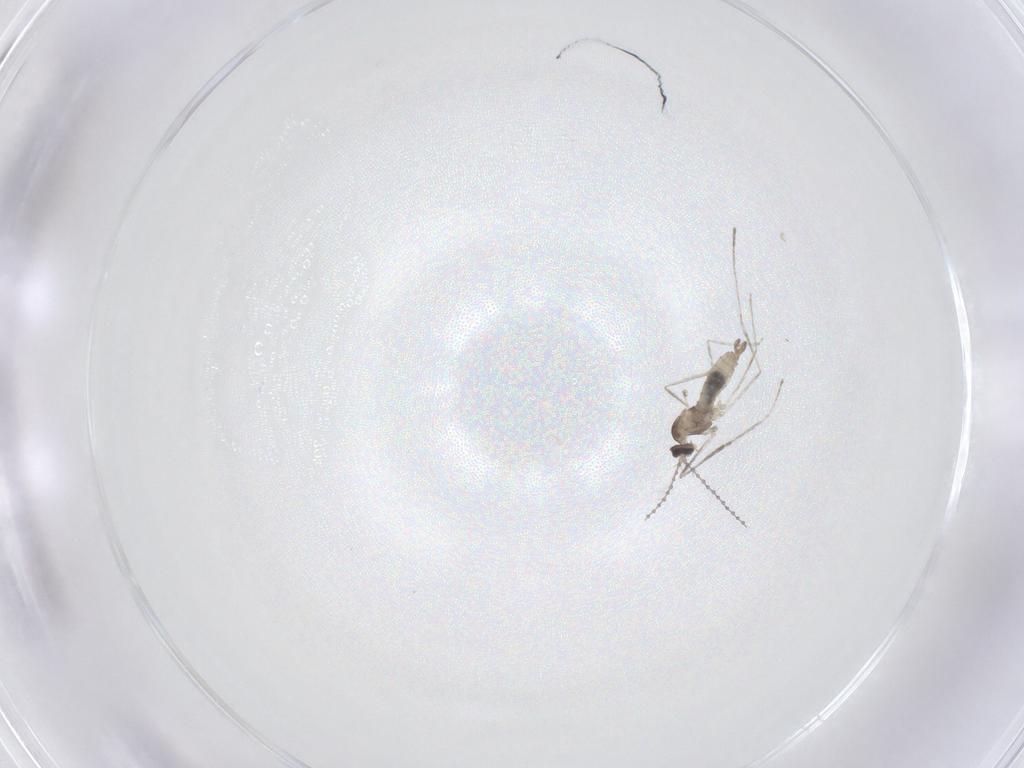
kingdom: Animalia
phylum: Arthropoda
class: Insecta
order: Diptera
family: Cecidomyiidae
